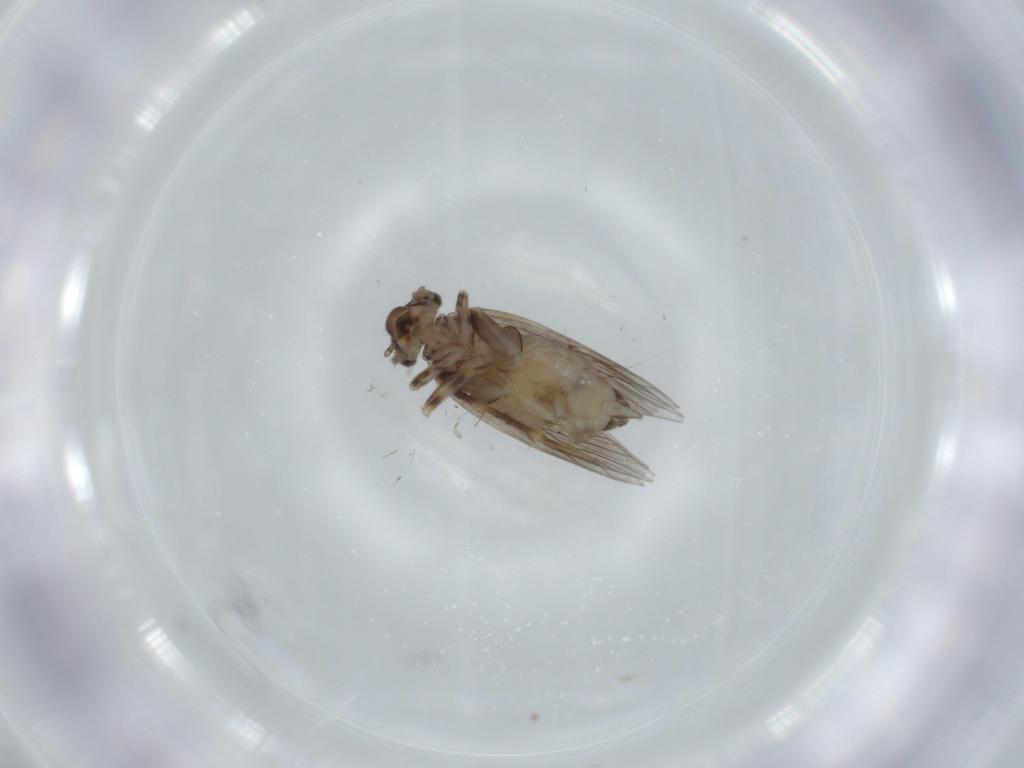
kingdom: Animalia
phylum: Arthropoda
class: Insecta
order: Psocodea
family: Lepidopsocidae
